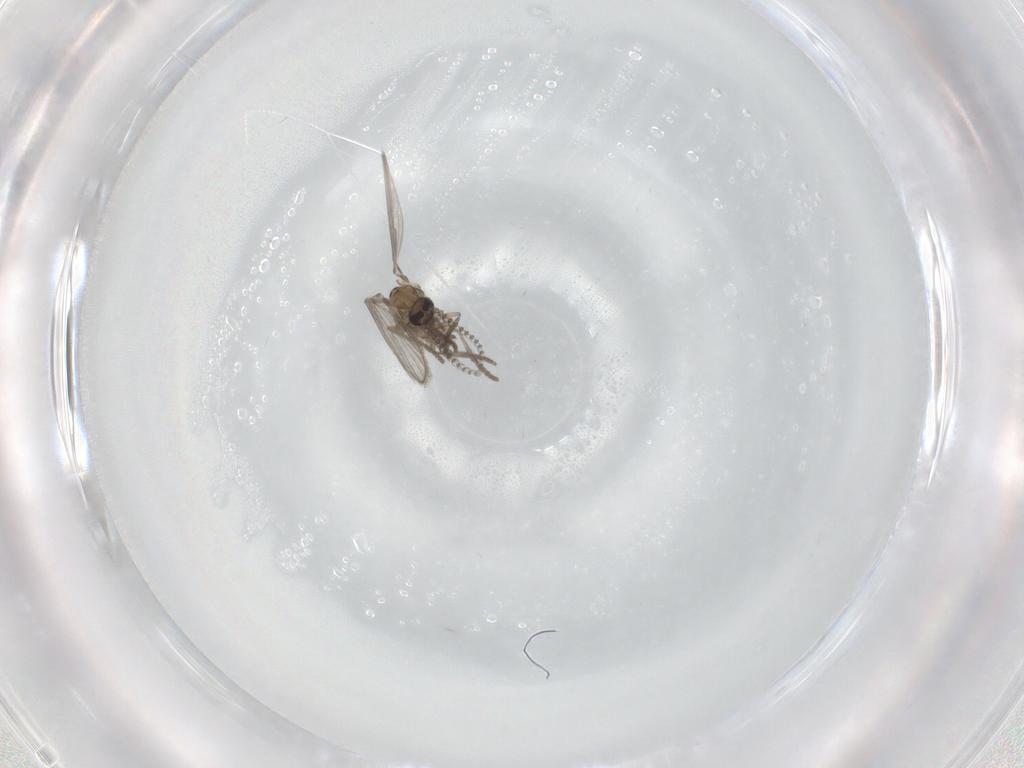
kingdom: Animalia
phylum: Arthropoda
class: Insecta
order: Diptera
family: Psychodidae
